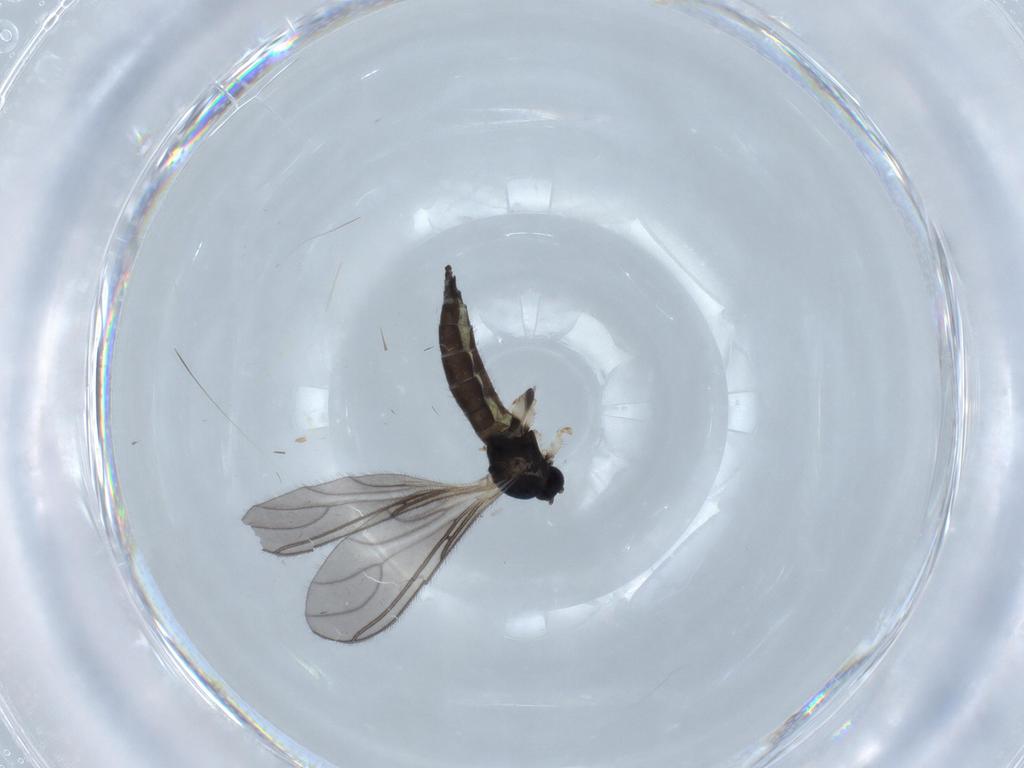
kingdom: Animalia
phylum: Arthropoda
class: Insecta
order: Diptera
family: Sciaridae
